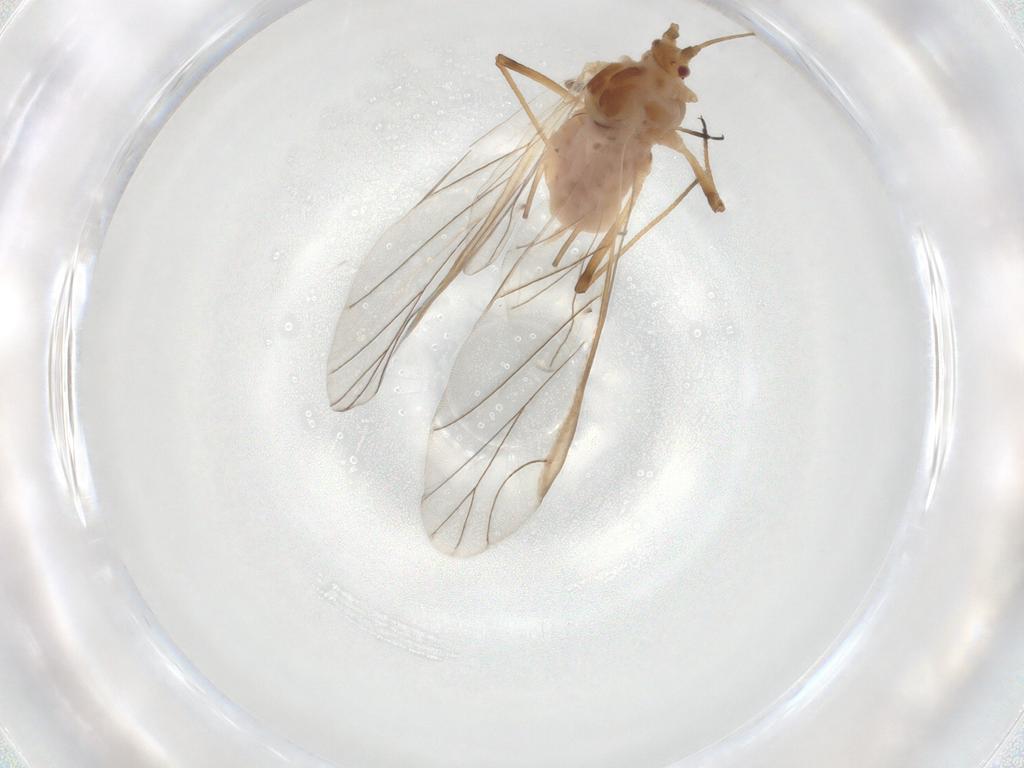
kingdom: Animalia
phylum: Arthropoda
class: Insecta
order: Hemiptera
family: Aphididae
